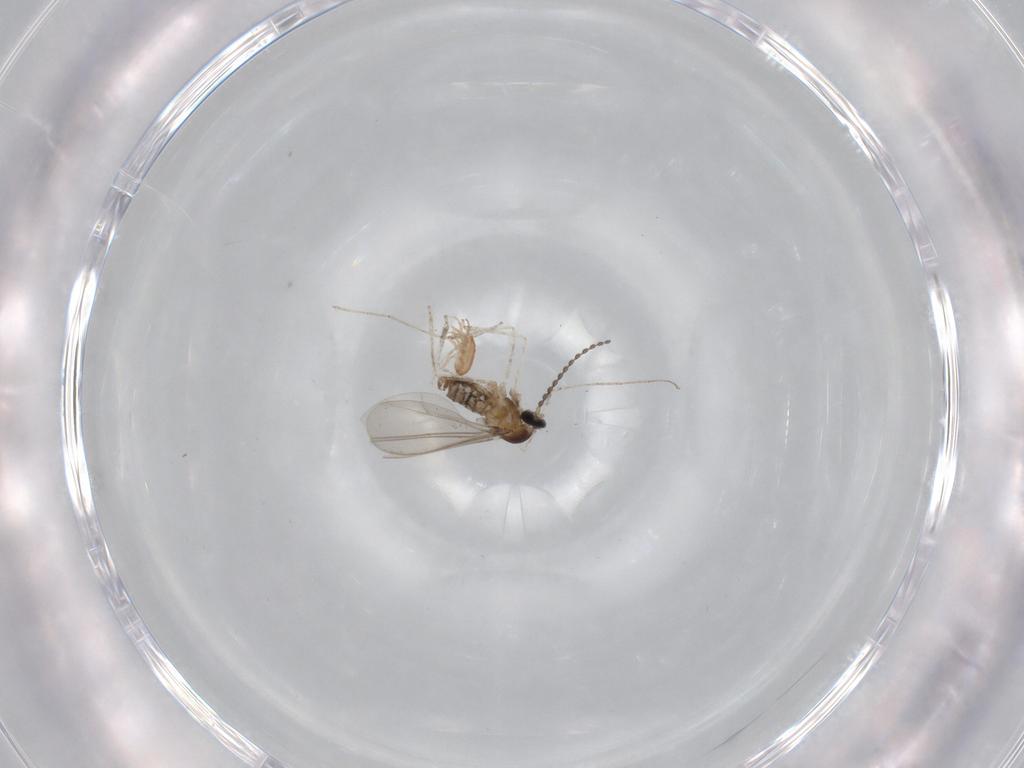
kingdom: Animalia
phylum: Arthropoda
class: Insecta
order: Diptera
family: Cecidomyiidae
